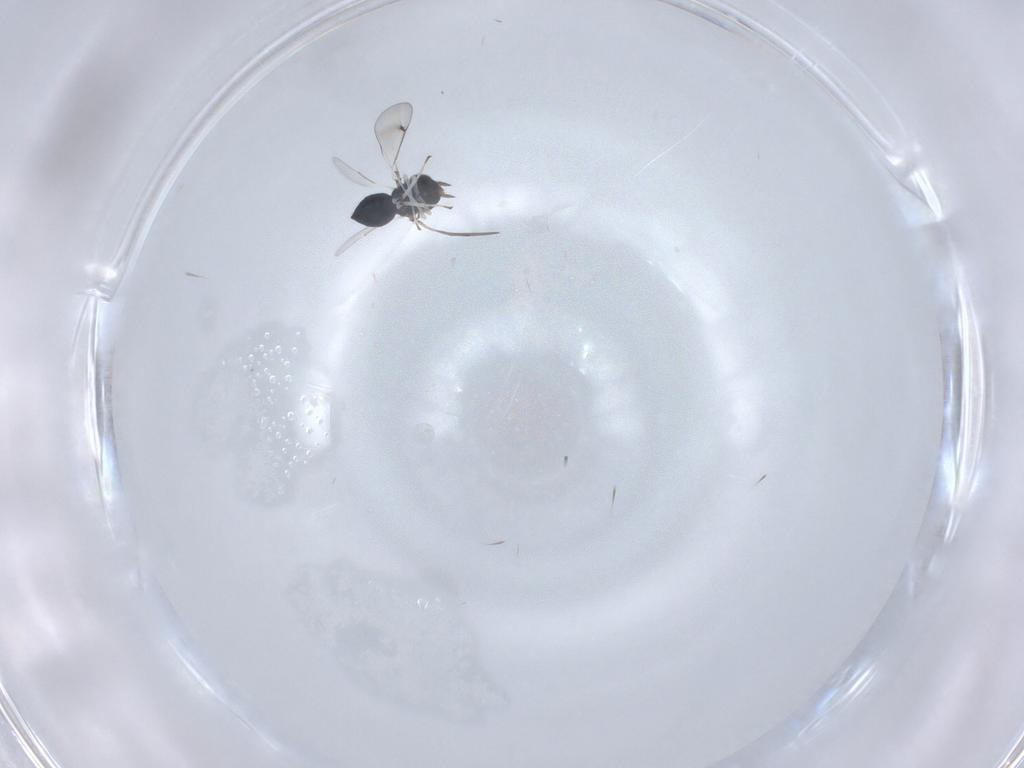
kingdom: Animalia
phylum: Arthropoda
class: Insecta
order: Hymenoptera
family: Eulophidae
